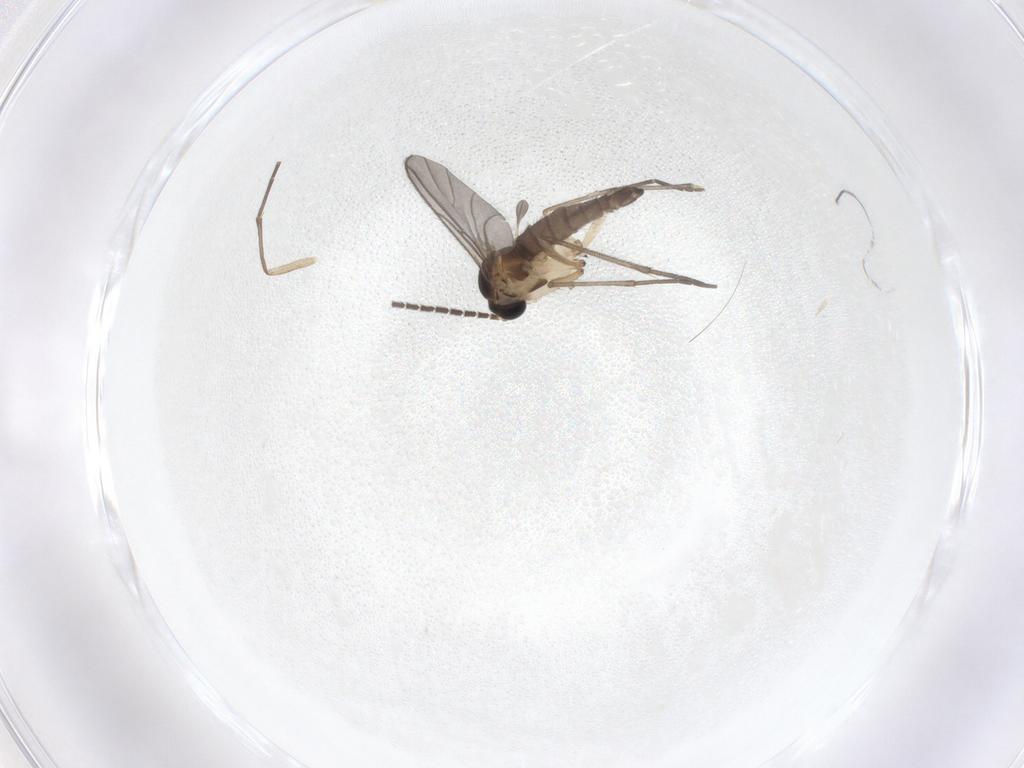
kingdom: Animalia
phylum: Arthropoda
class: Insecta
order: Diptera
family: Sciaridae
